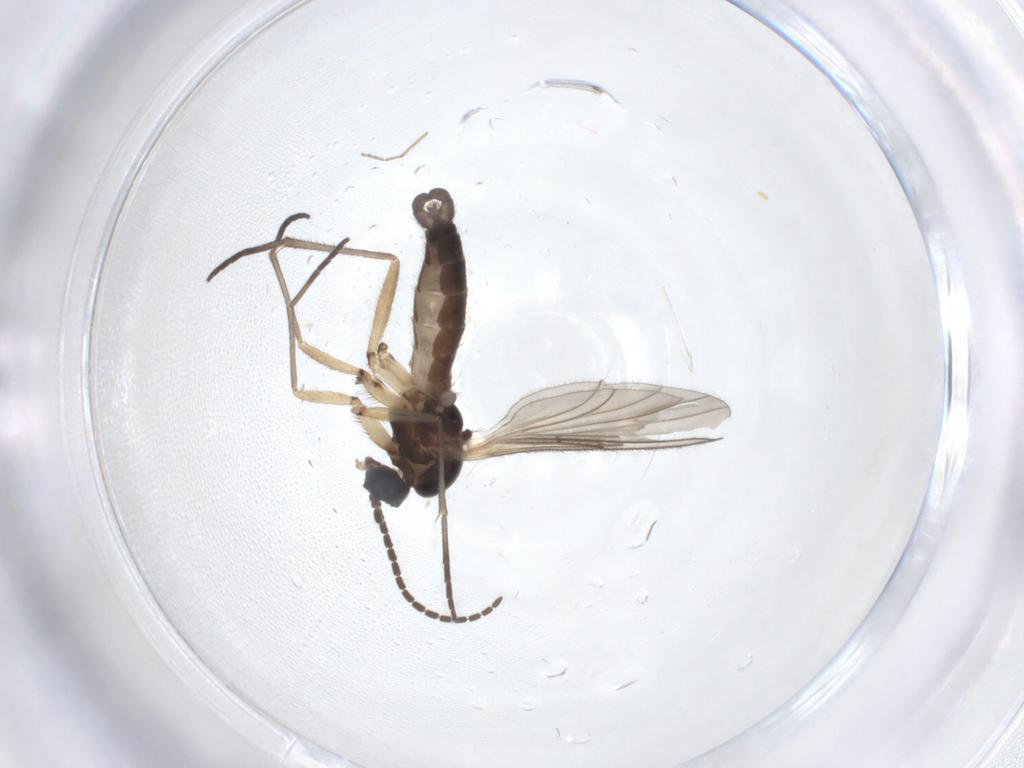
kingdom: Animalia
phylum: Arthropoda
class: Insecta
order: Diptera
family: Sciaridae
